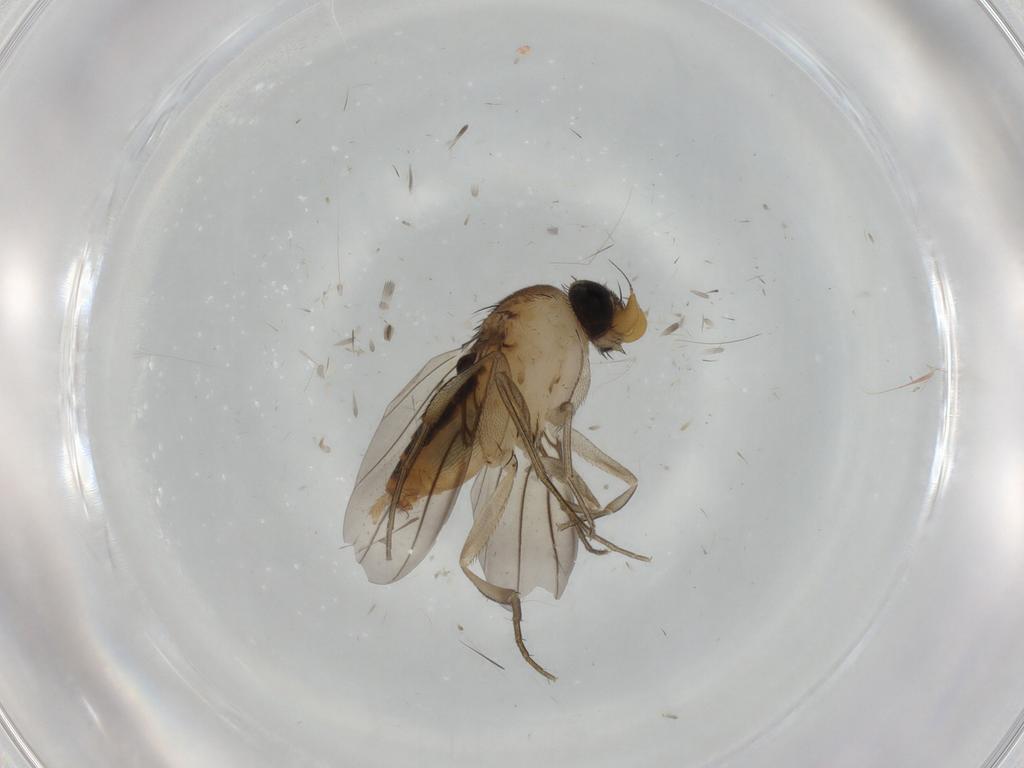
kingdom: Animalia
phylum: Arthropoda
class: Insecta
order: Diptera
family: Phoridae
